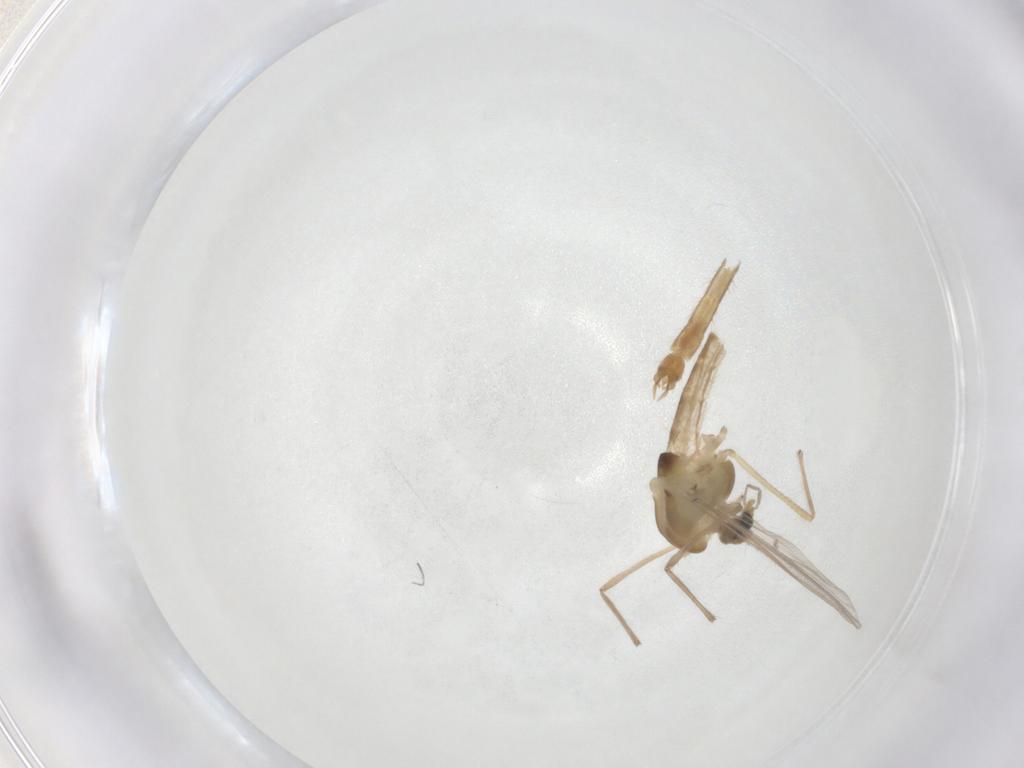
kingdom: Animalia
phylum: Arthropoda
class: Insecta
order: Diptera
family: Chironomidae
